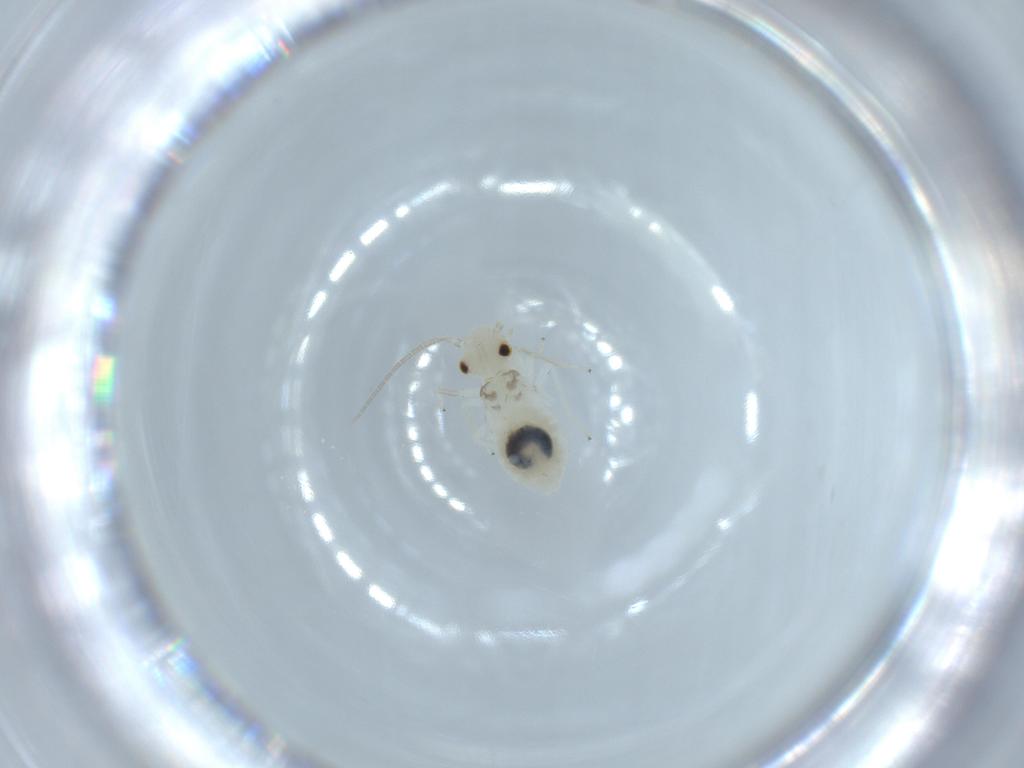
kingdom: Animalia
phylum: Arthropoda
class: Insecta
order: Psocodea
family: Caeciliusidae
